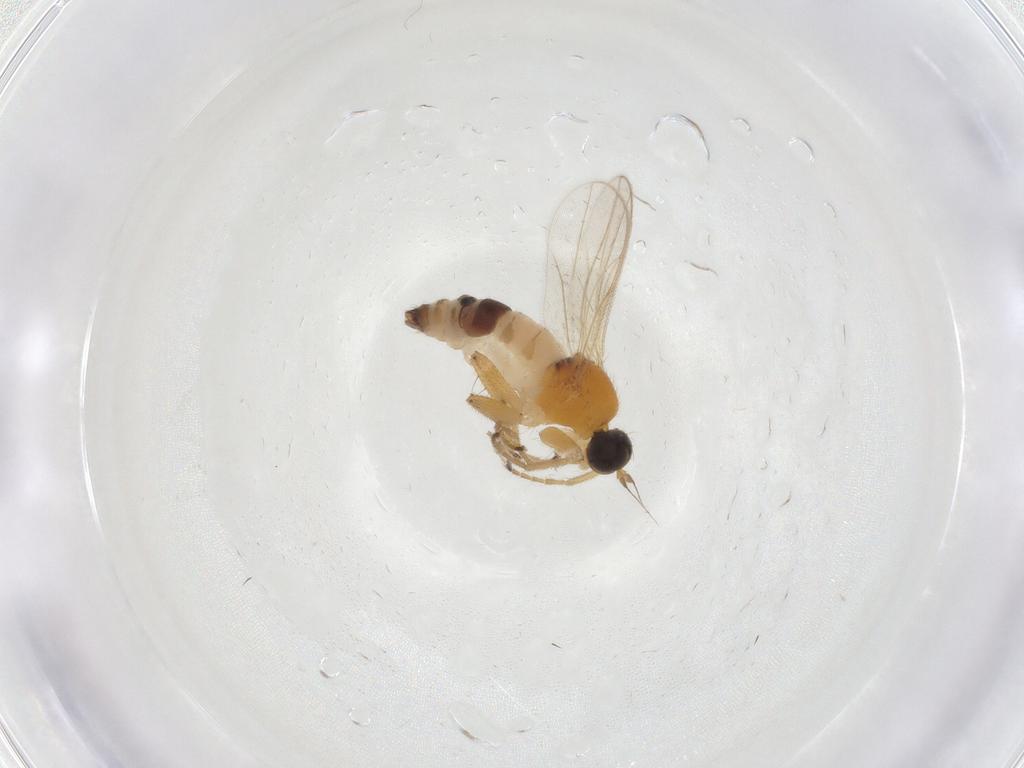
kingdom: Animalia
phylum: Arthropoda
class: Insecta
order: Diptera
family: Hybotidae
